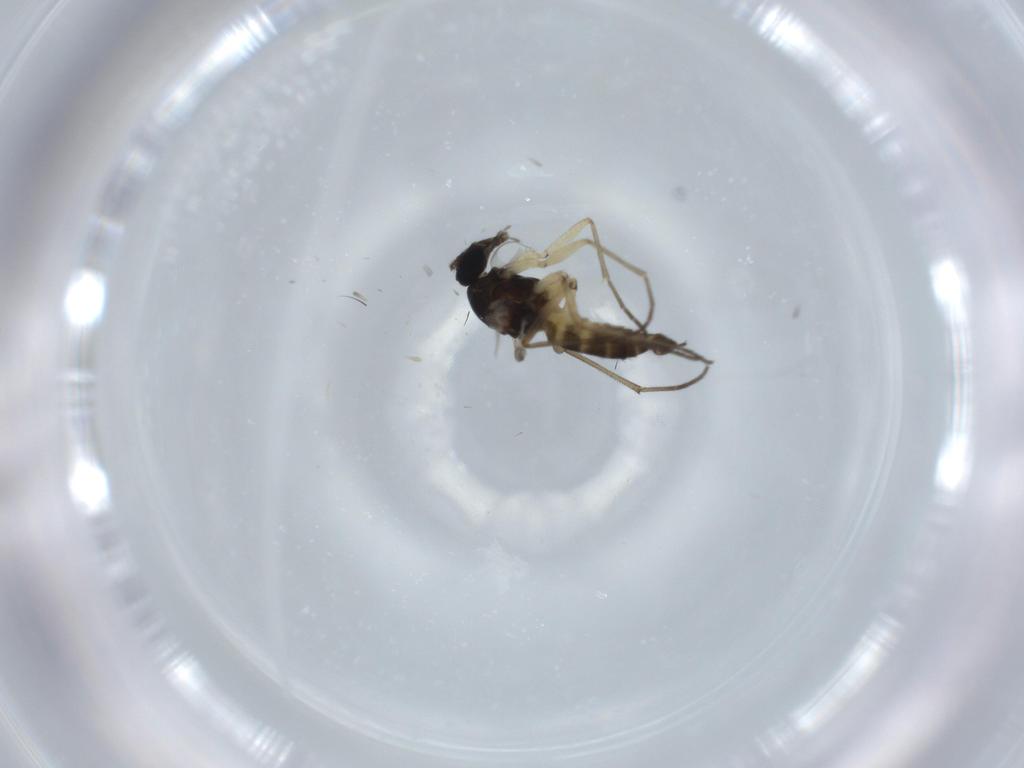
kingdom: Animalia
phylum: Arthropoda
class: Insecta
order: Diptera
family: Sciaridae
